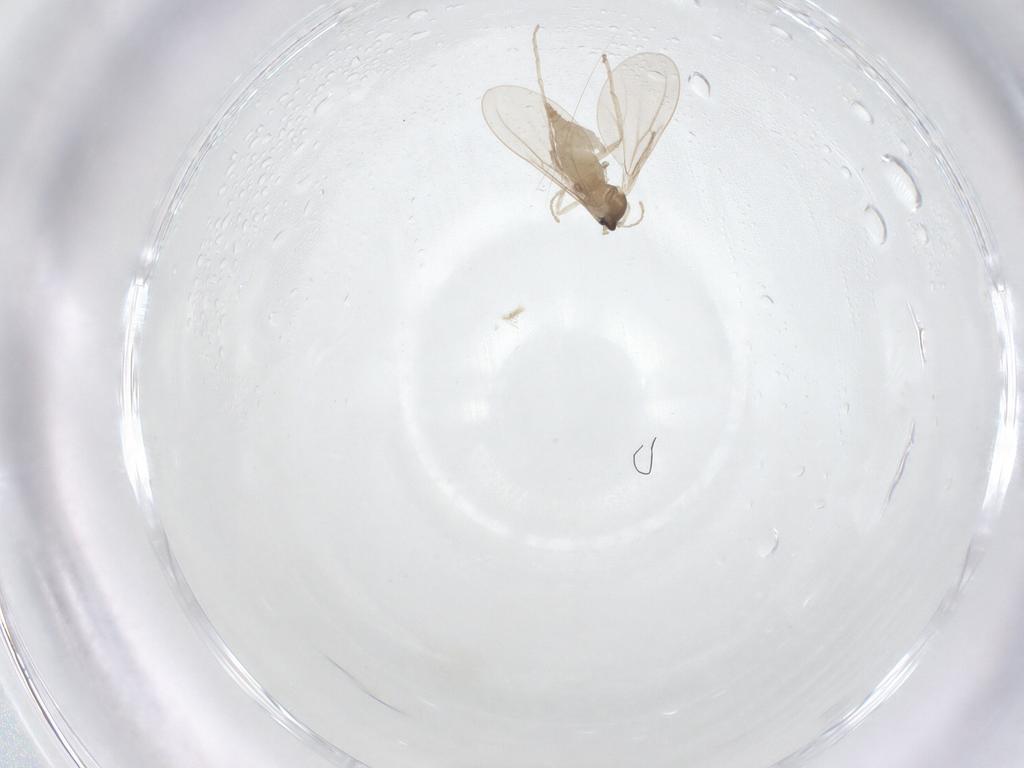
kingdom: Animalia
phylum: Arthropoda
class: Insecta
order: Diptera
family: Cecidomyiidae
